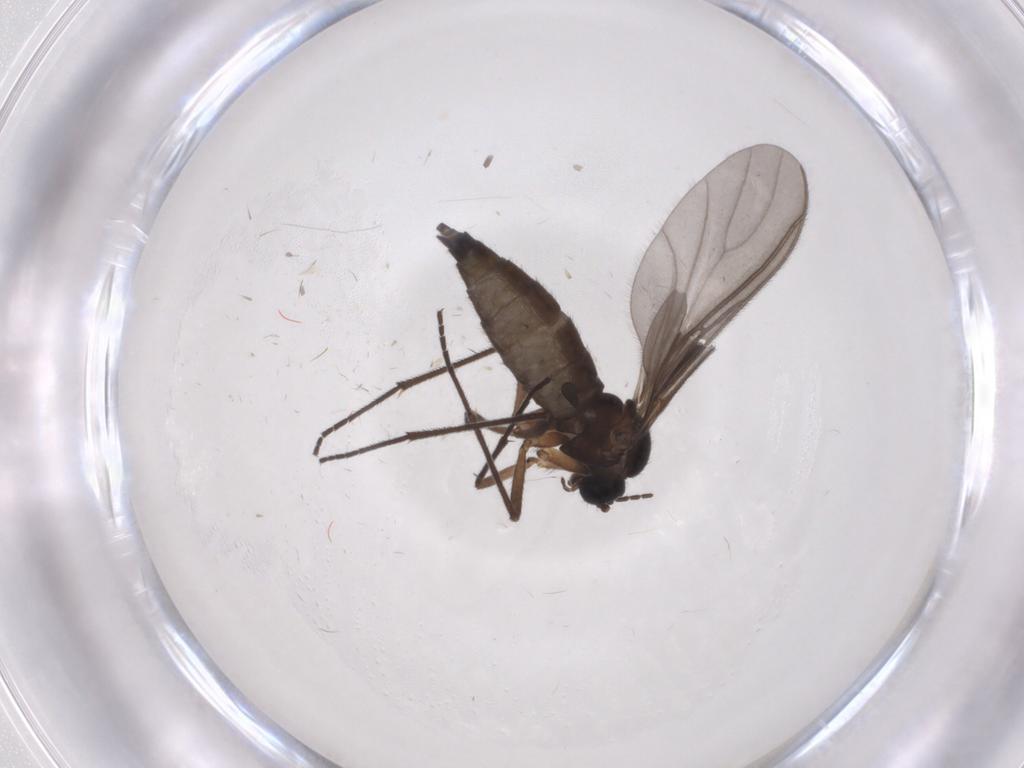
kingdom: Animalia
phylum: Arthropoda
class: Insecta
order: Diptera
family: Sciaridae
